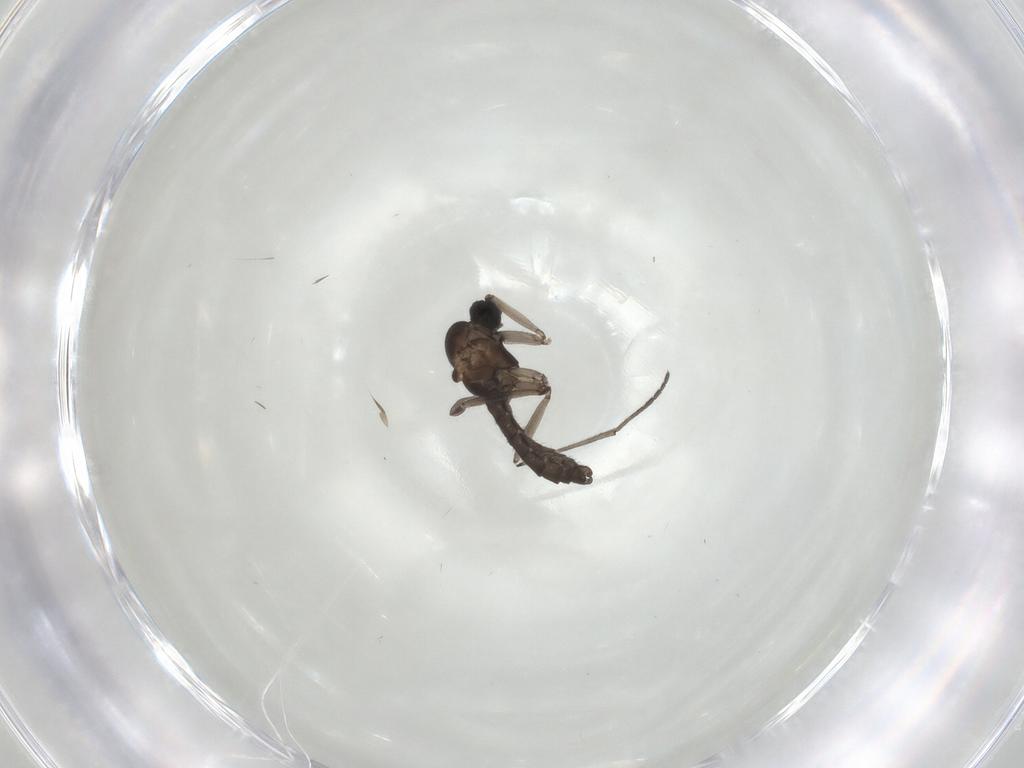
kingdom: Animalia
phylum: Arthropoda
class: Insecta
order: Diptera
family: Sciaridae
